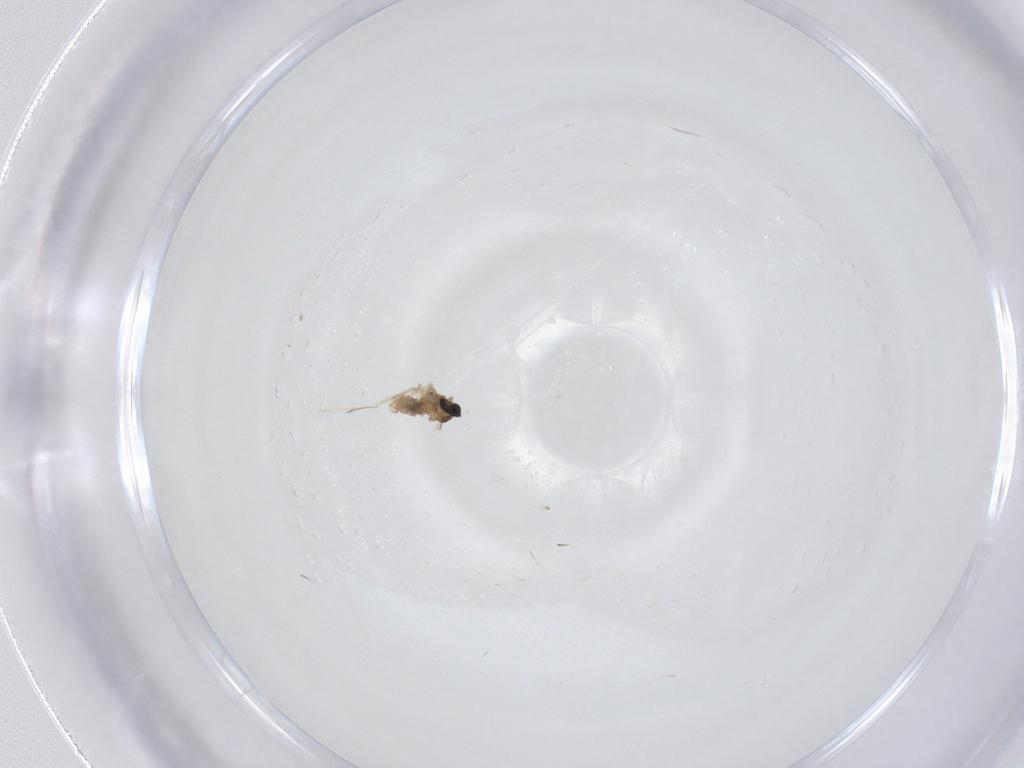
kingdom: Animalia
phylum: Arthropoda
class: Insecta
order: Diptera
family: Cecidomyiidae
